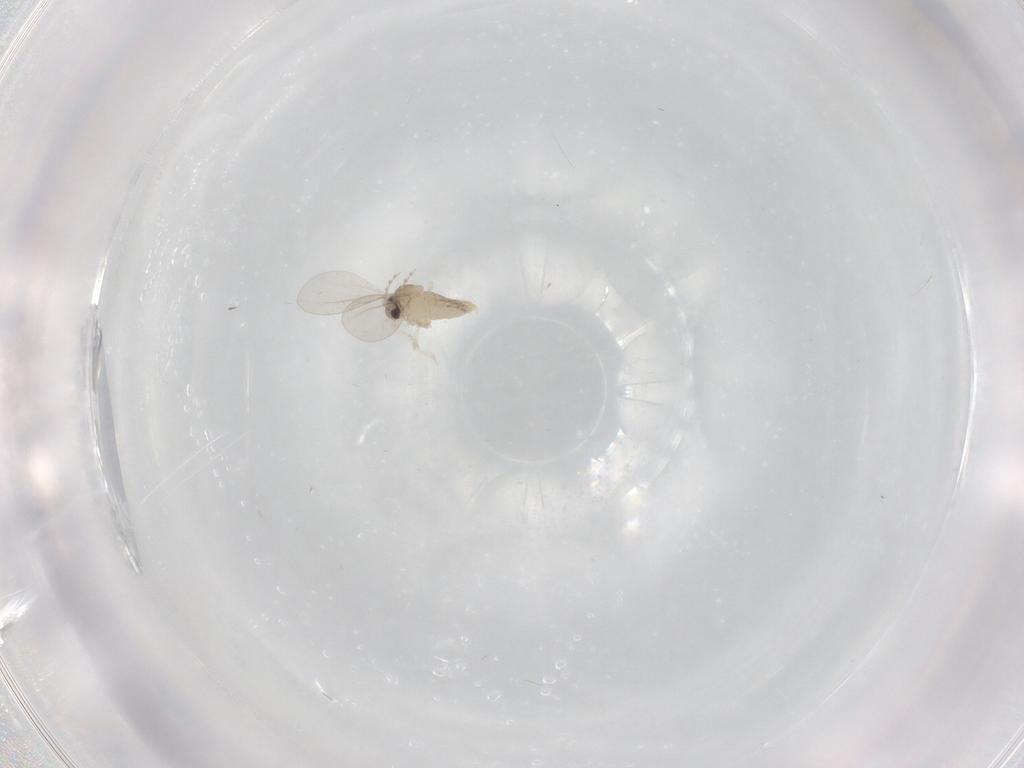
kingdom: Animalia
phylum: Arthropoda
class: Insecta
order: Diptera
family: Cecidomyiidae
